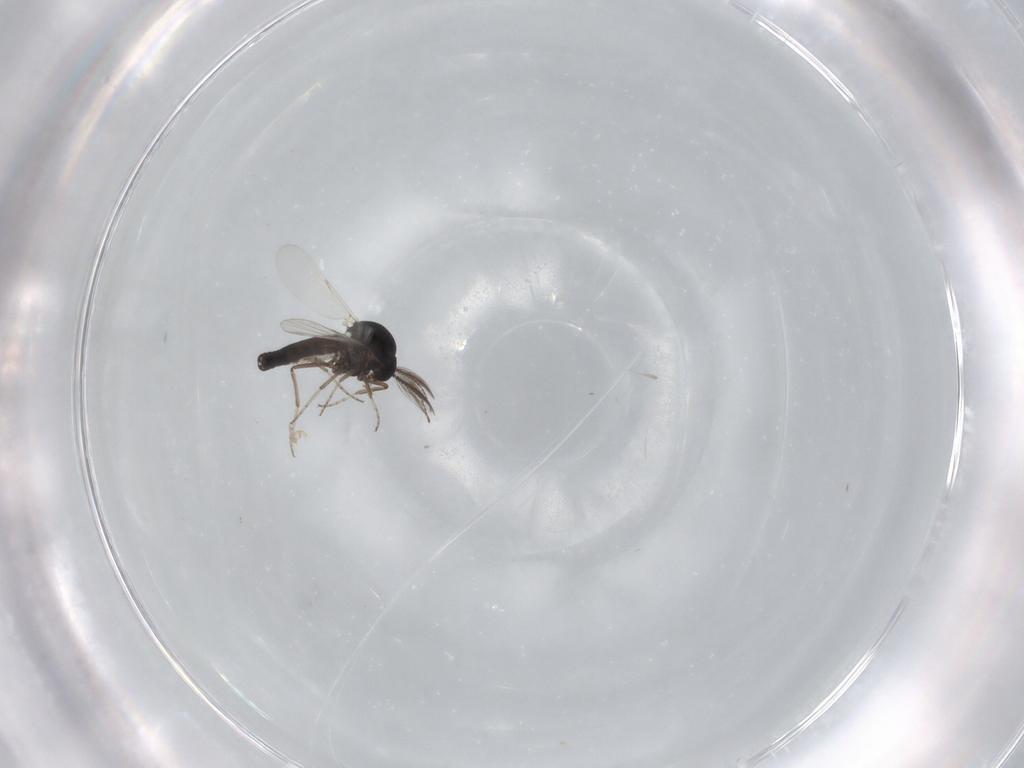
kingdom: Animalia
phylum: Arthropoda
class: Insecta
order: Diptera
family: Ceratopogonidae
